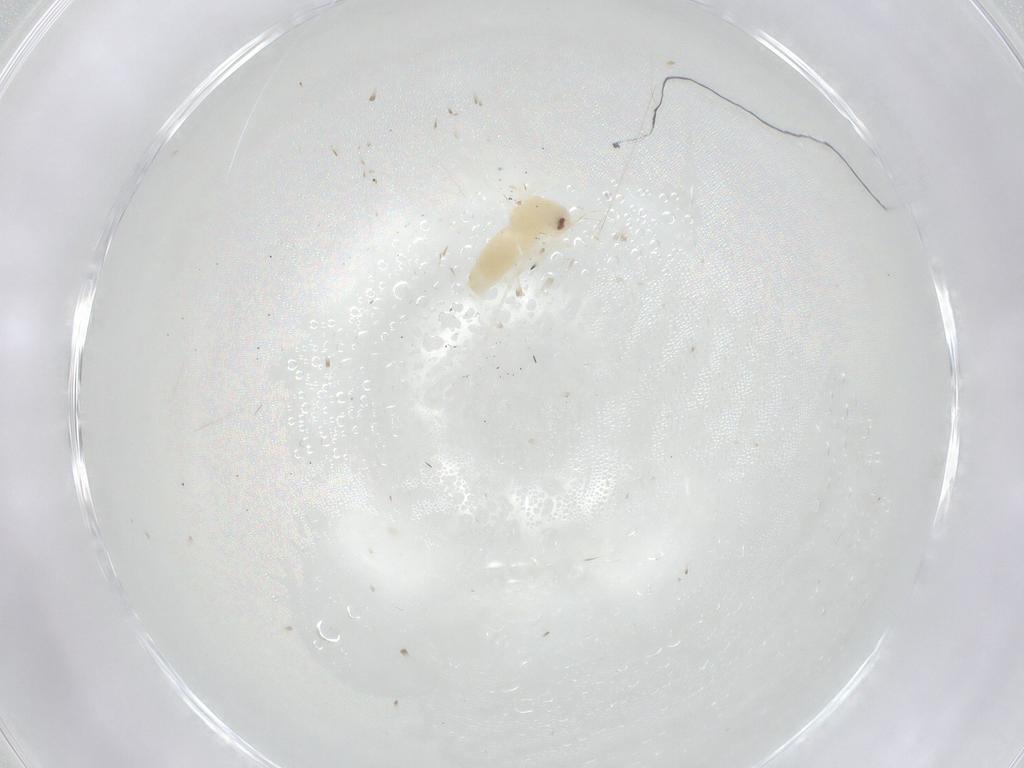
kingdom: Animalia
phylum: Arthropoda
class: Insecta
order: Hemiptera
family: Aleyrodidae
